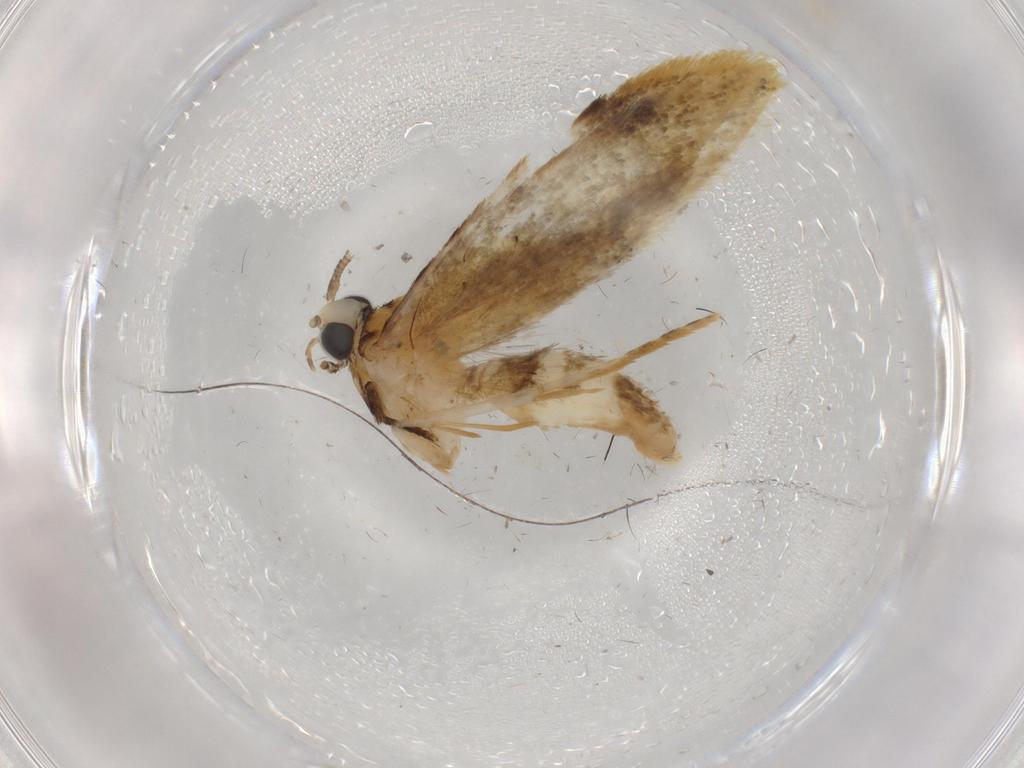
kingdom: Animalia
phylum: Arthropoda
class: Insecta
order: Lepidoptera
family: Tineidae
